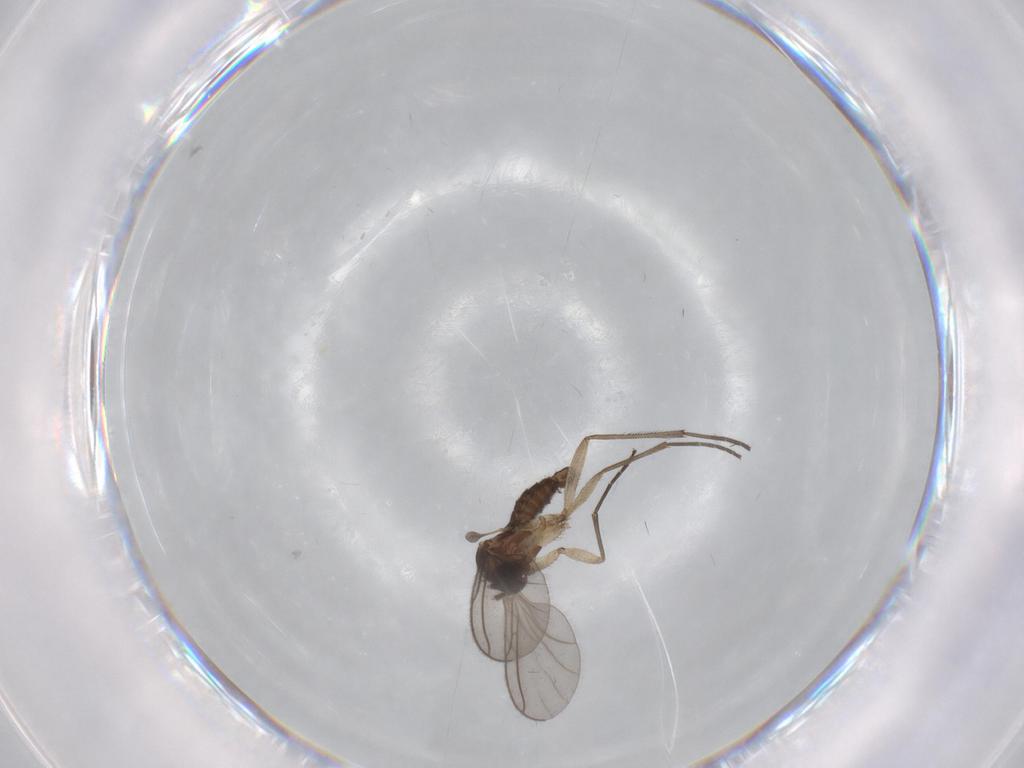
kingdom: Animalia
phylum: Arthropoda
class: Insecta
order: Diptera
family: Sciaridae
